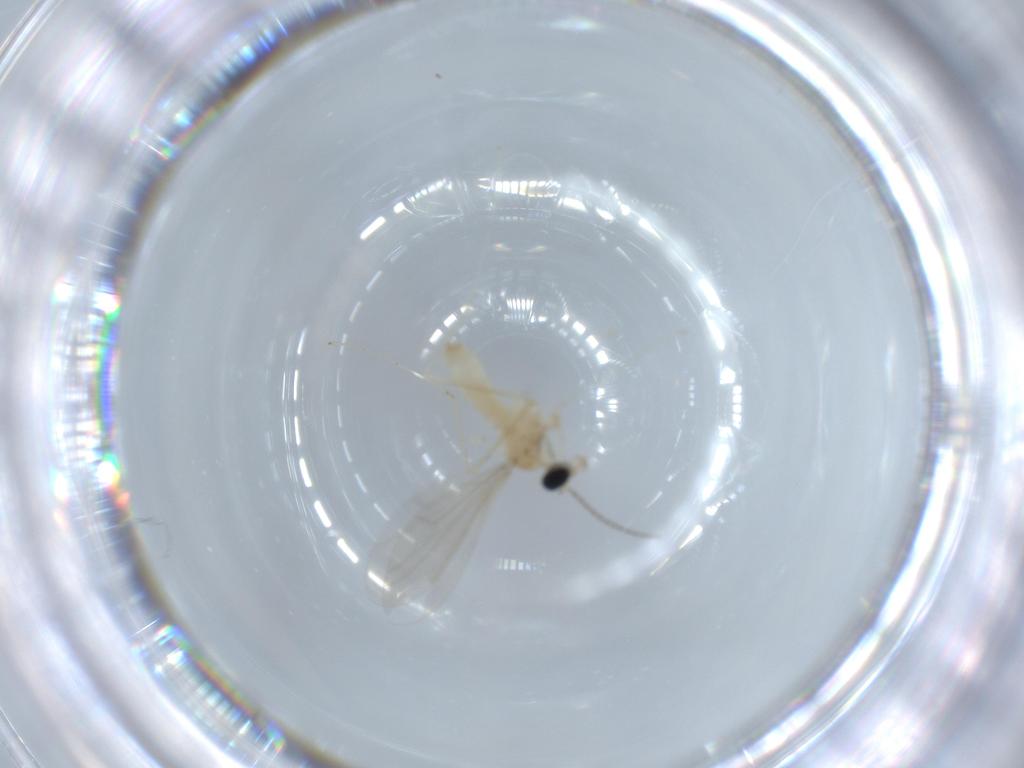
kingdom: Animalia
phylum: Arthropoda
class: Insecta
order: Diptera
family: Cecidomyiidae
